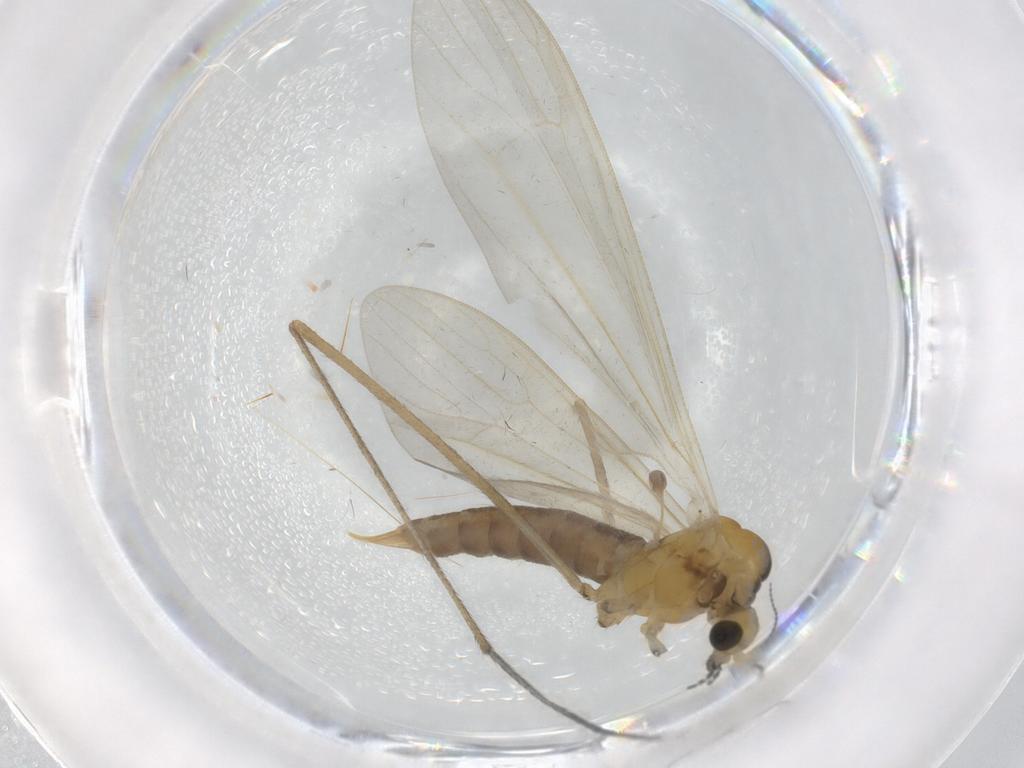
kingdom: Animalia
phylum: Arthropoda
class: Insecta
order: Diptera
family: Limoniidae
